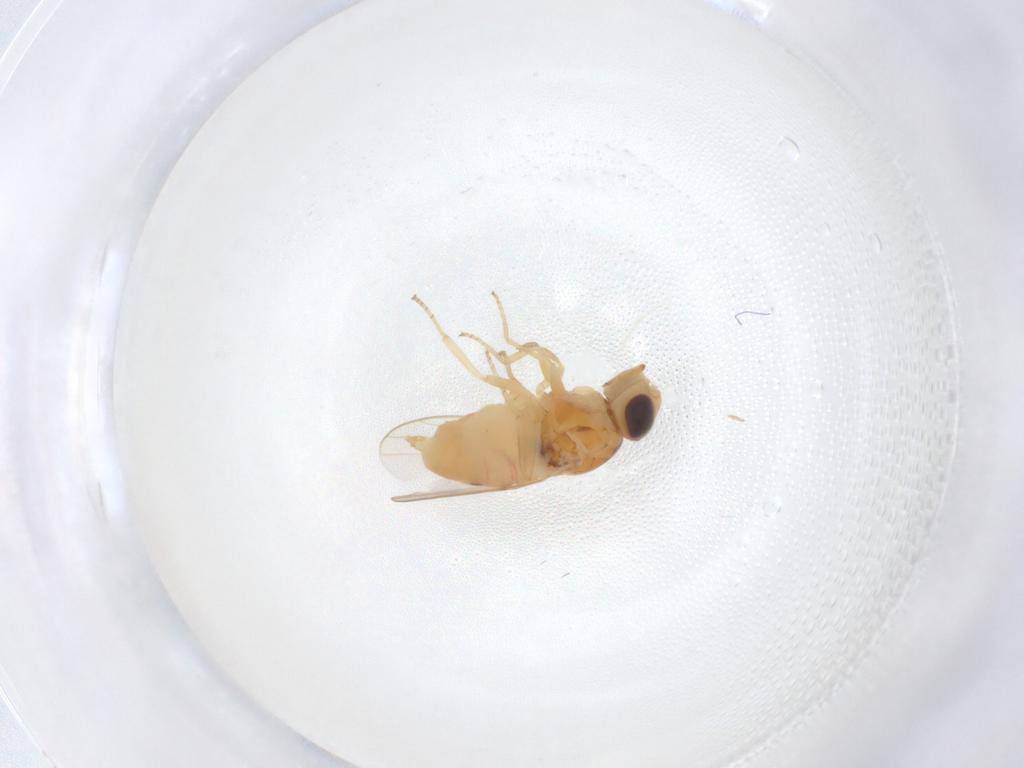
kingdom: Animalia
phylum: Arthropoda
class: Insecta
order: Diptera
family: Chloropidae
